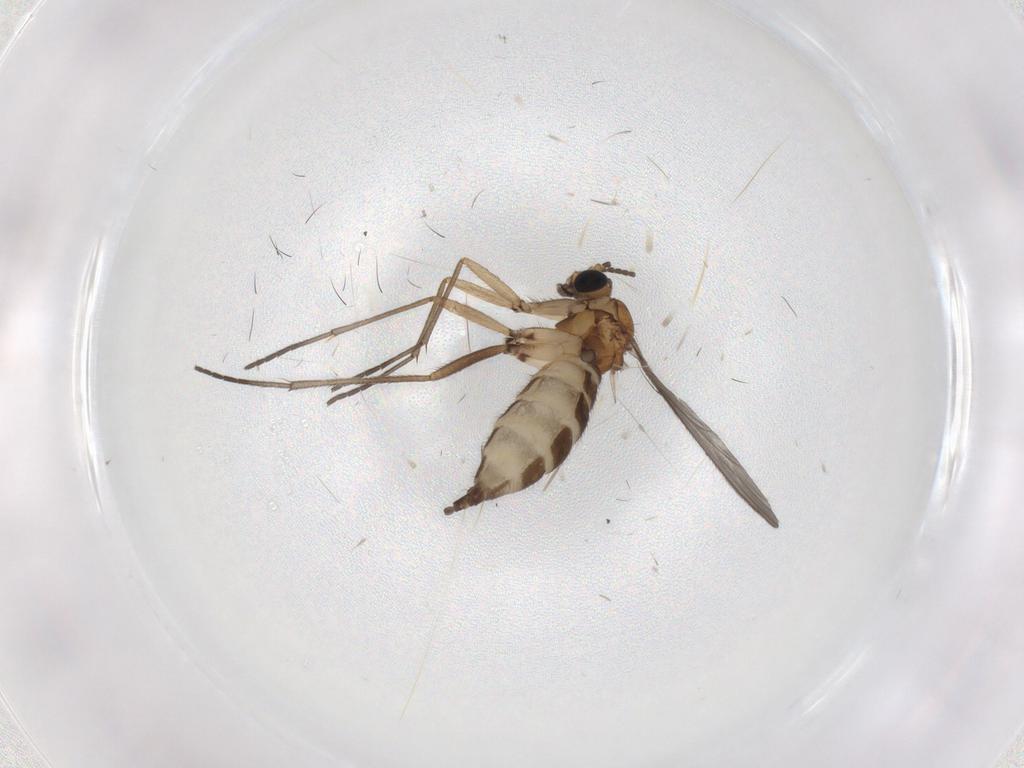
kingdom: Animalia
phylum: Arthropoda
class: Insecta
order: Diptera
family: Sciaridae
